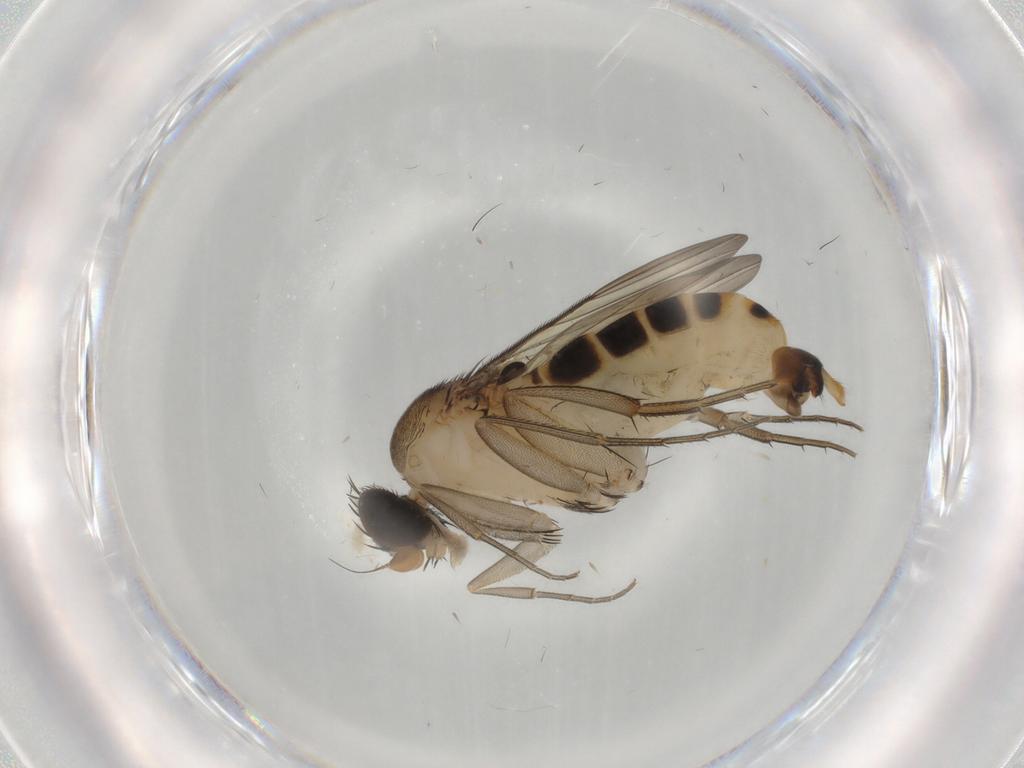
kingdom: Animalia
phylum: Arthropoda
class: Insecta
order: Diptera
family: Phoridae
